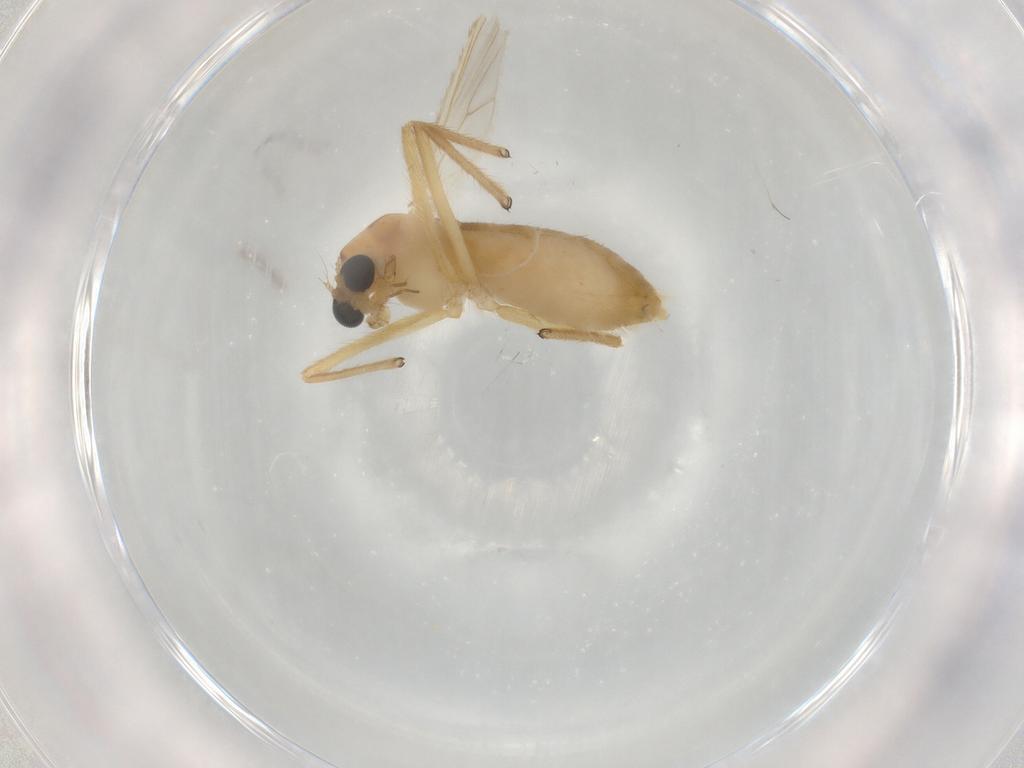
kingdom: Animalia
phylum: Arthropoda
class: Insecta
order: Diptera
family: Chironomidae
